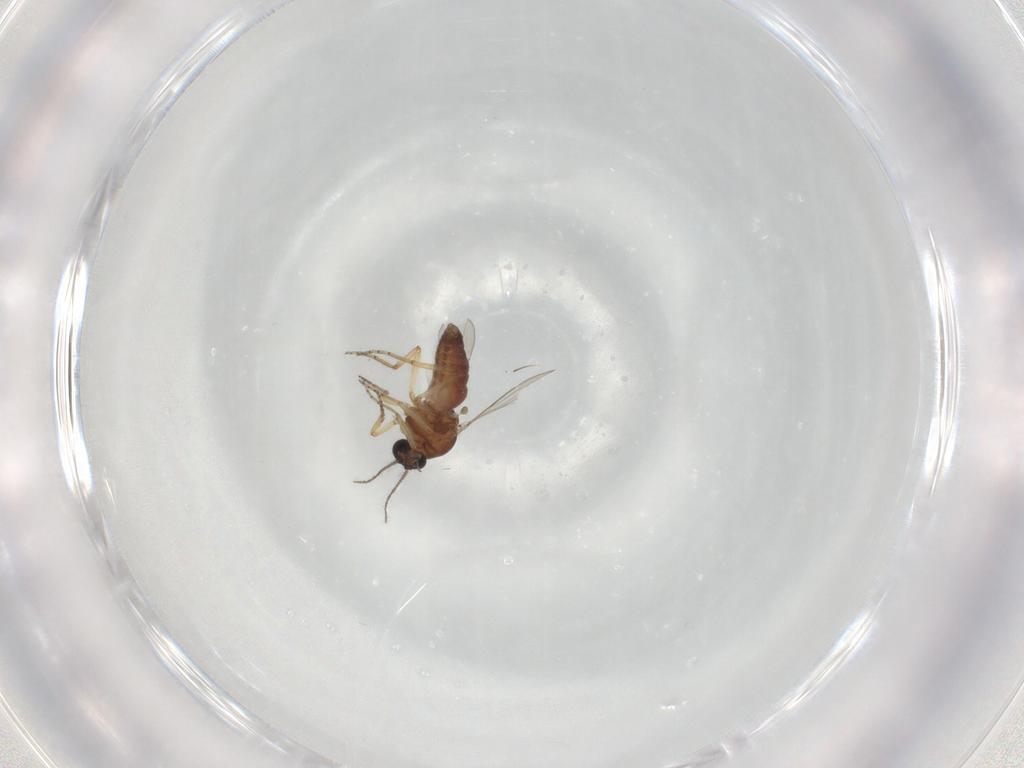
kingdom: Animalia
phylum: Arthropoda
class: Insecta
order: Diptera
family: Ceratopogonidae
